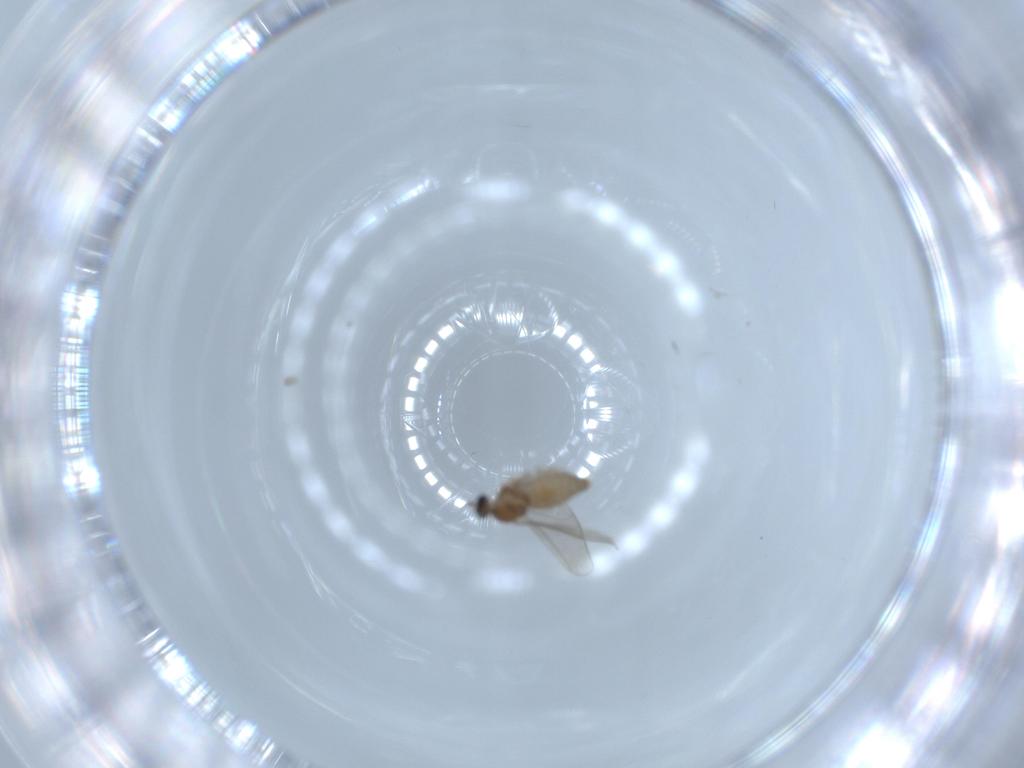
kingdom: Animalia
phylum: Arthropoda
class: Insecta
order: Diptera
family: Cecidomyiidae
